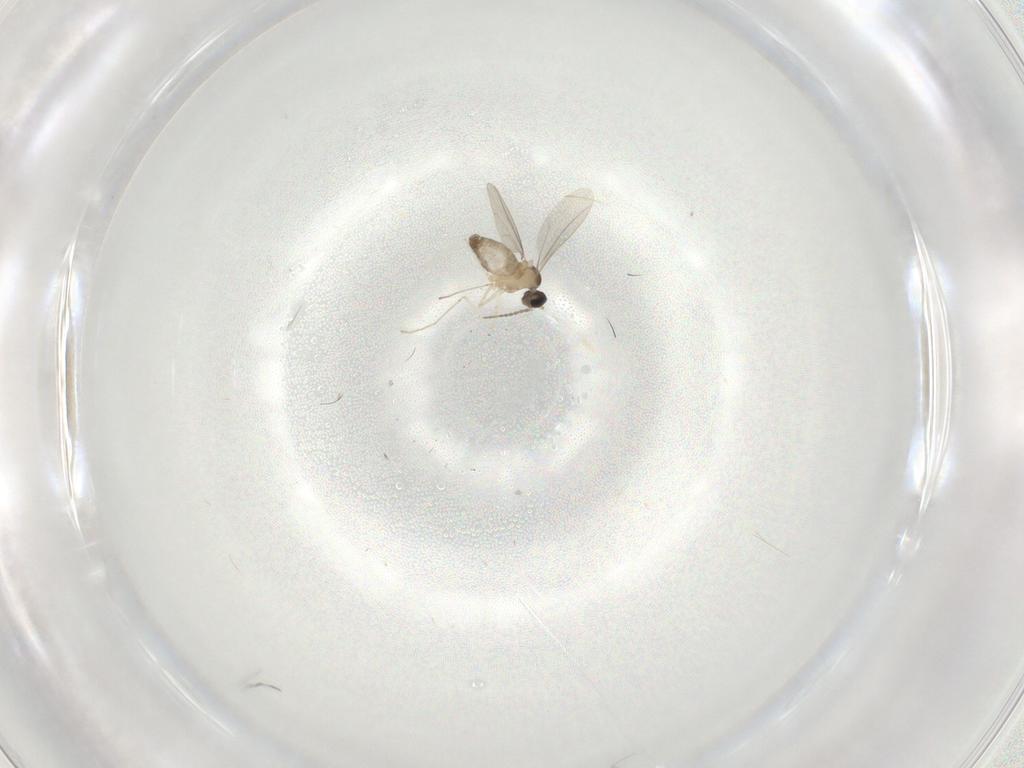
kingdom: Animalia
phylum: Arthropoda
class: Insecta
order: Diptera
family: Cecidomyiidae
